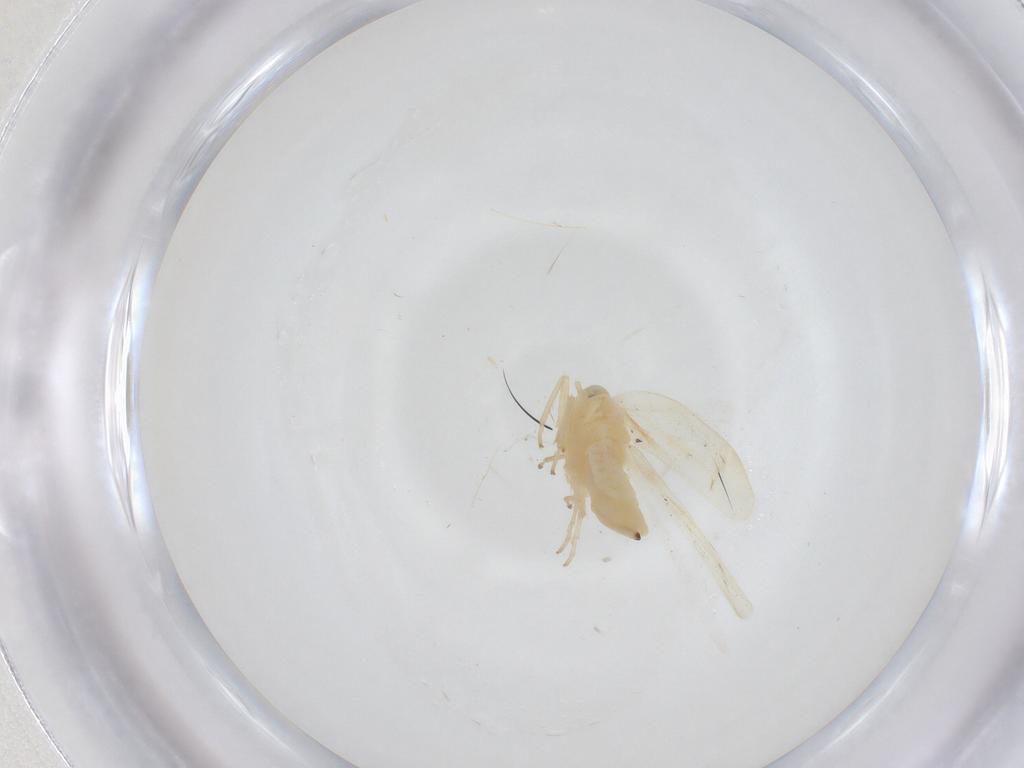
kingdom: Animalia
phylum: Arthropoda
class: Insecta
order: Hemiptera
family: Cicadellidae
